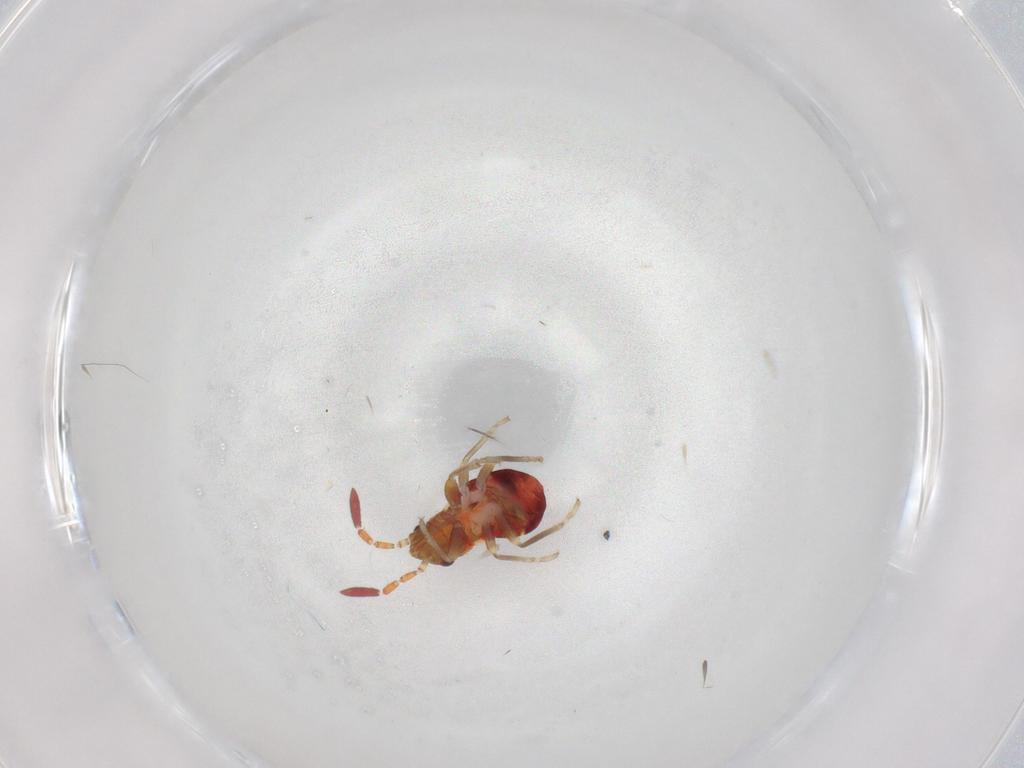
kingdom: Animalia
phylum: Arthropoda
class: Insecta
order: Hemiptera
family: Rhyparochromidae
